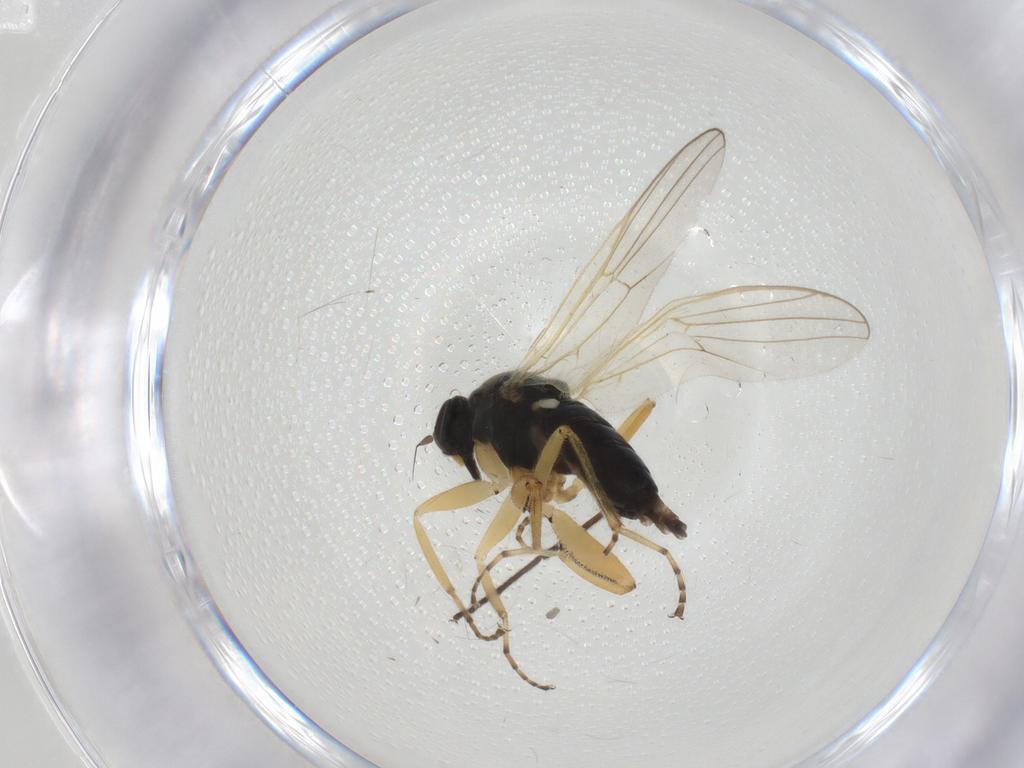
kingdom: Animalia
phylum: Arthropoda
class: Insecta
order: Diptera
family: Hybotidae
